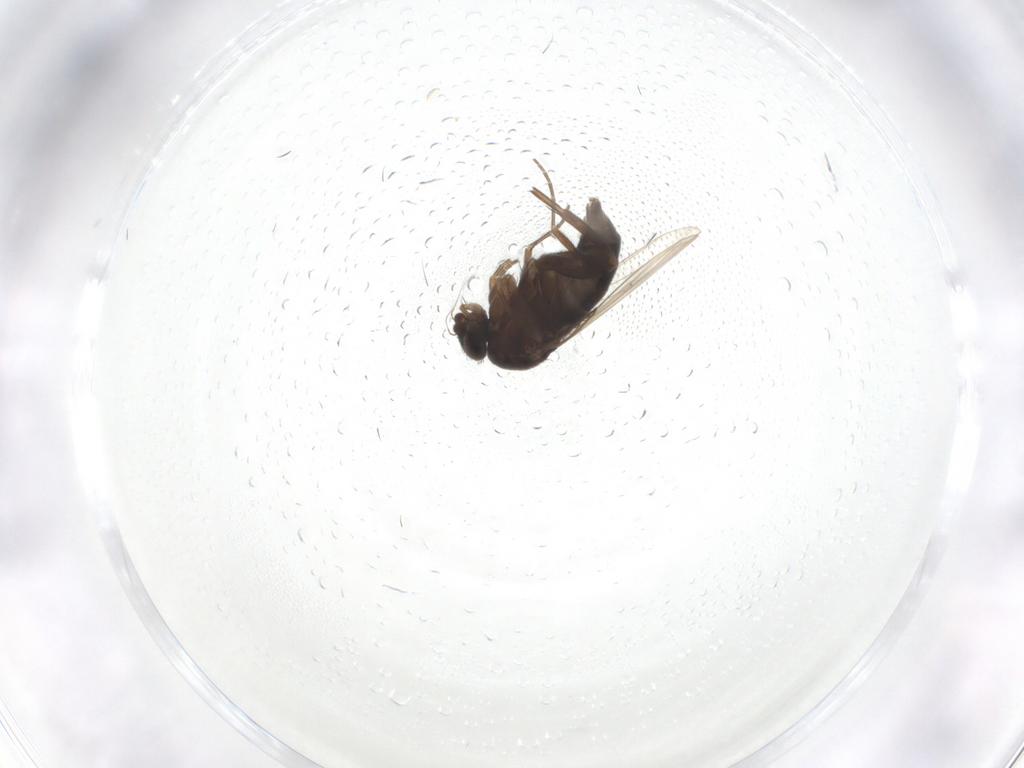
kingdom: Animalia
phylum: Arthropoda
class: Insecta
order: Diptera
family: Phoridae
